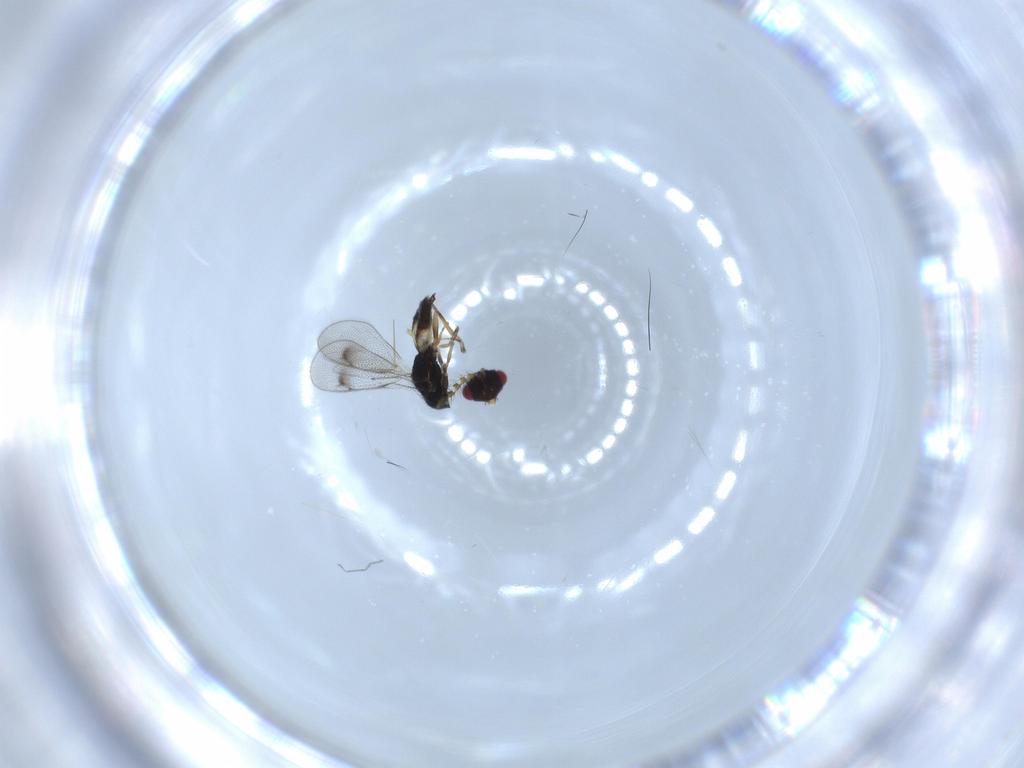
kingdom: Animalia
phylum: Arthropoda
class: Insecta
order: Hymenoptera
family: Eulophidae
